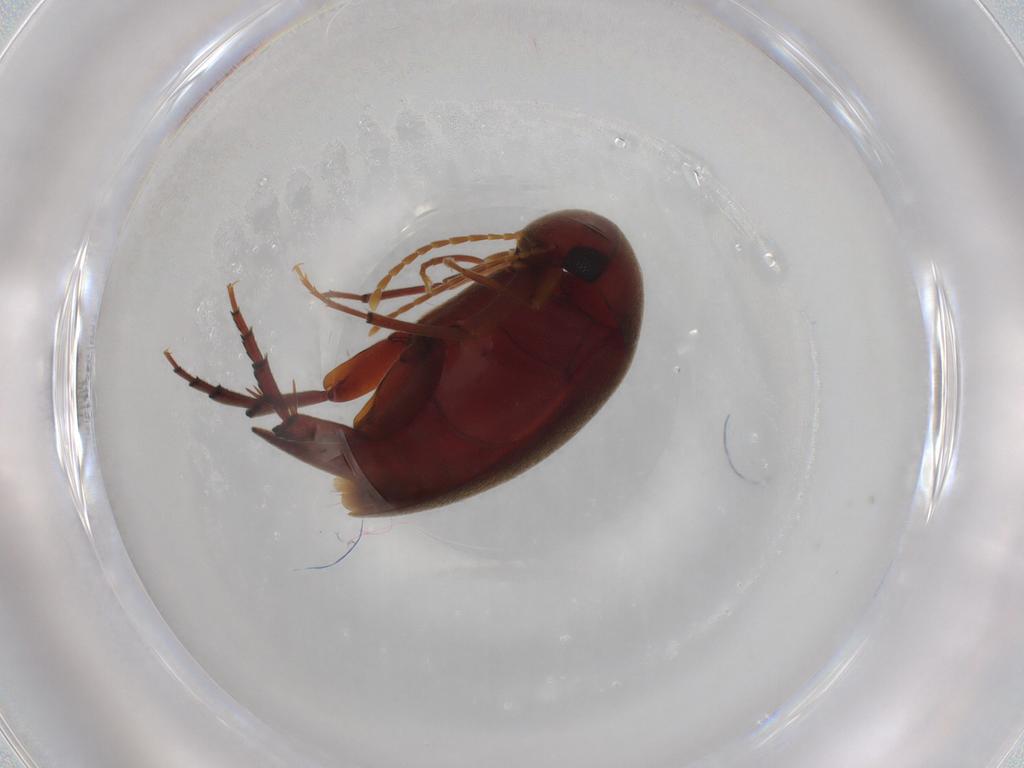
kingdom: Animalia
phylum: Arthropoda
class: Insecta
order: Coleoptera
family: Mordellidae
